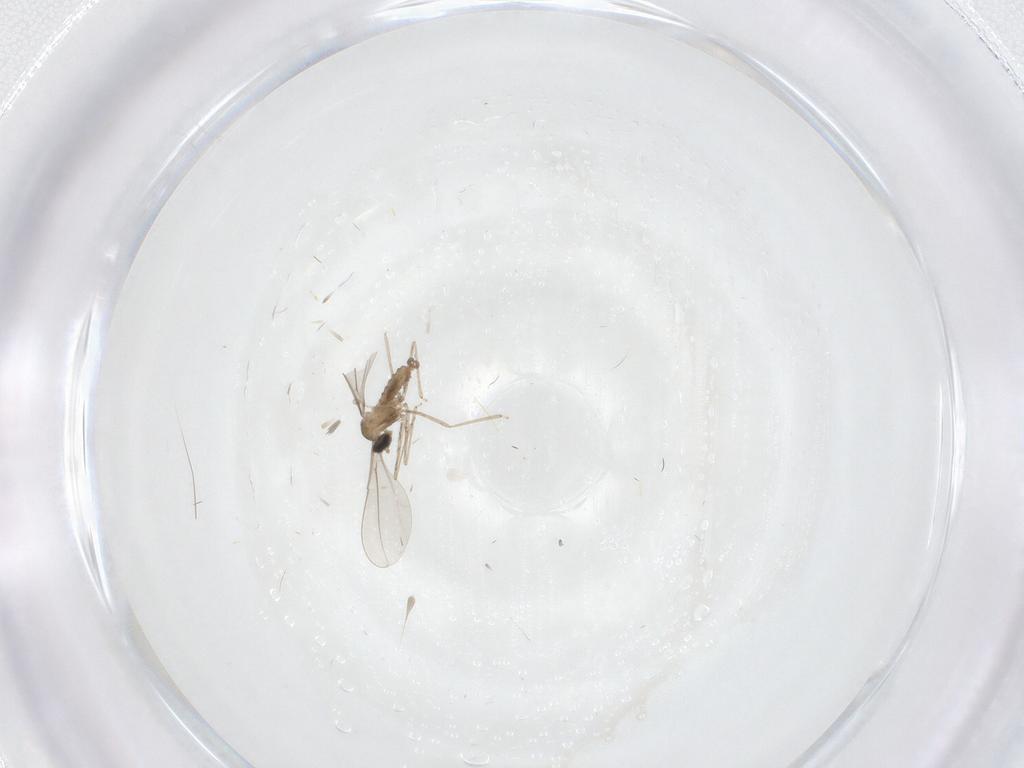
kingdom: Animalia
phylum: Arthropoda
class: Insecta
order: Diptera
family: Cecidomyiidae
